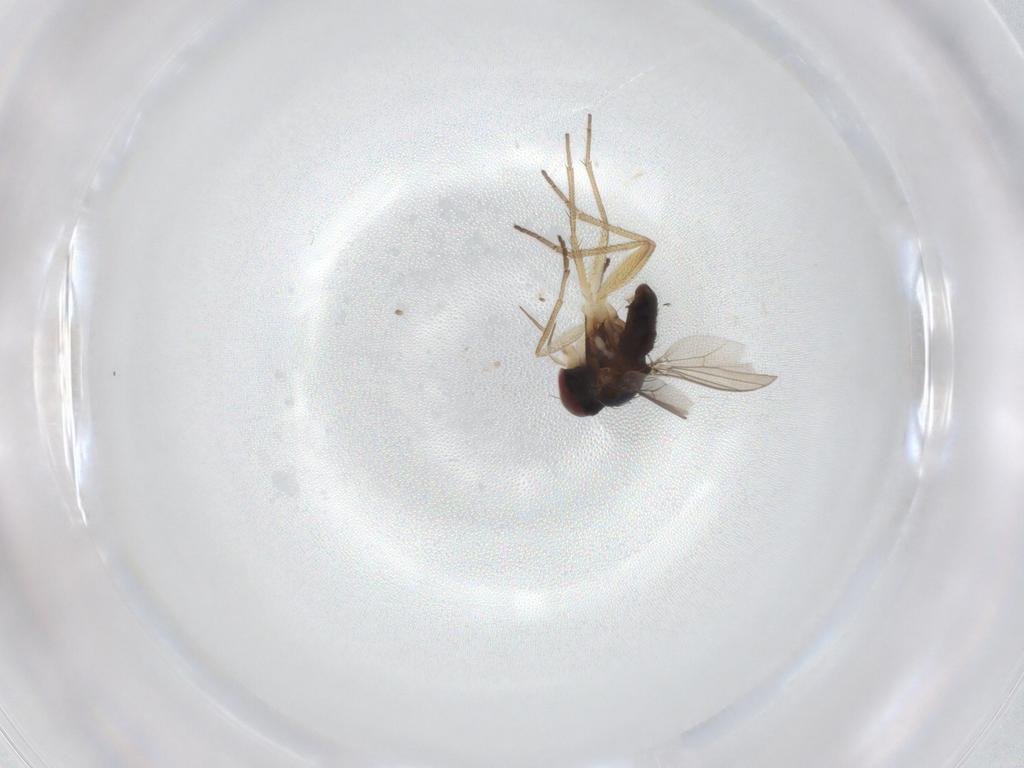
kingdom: Animalia
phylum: Arthropoda
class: Insecta
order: Diptera
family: Dolichopodidae
